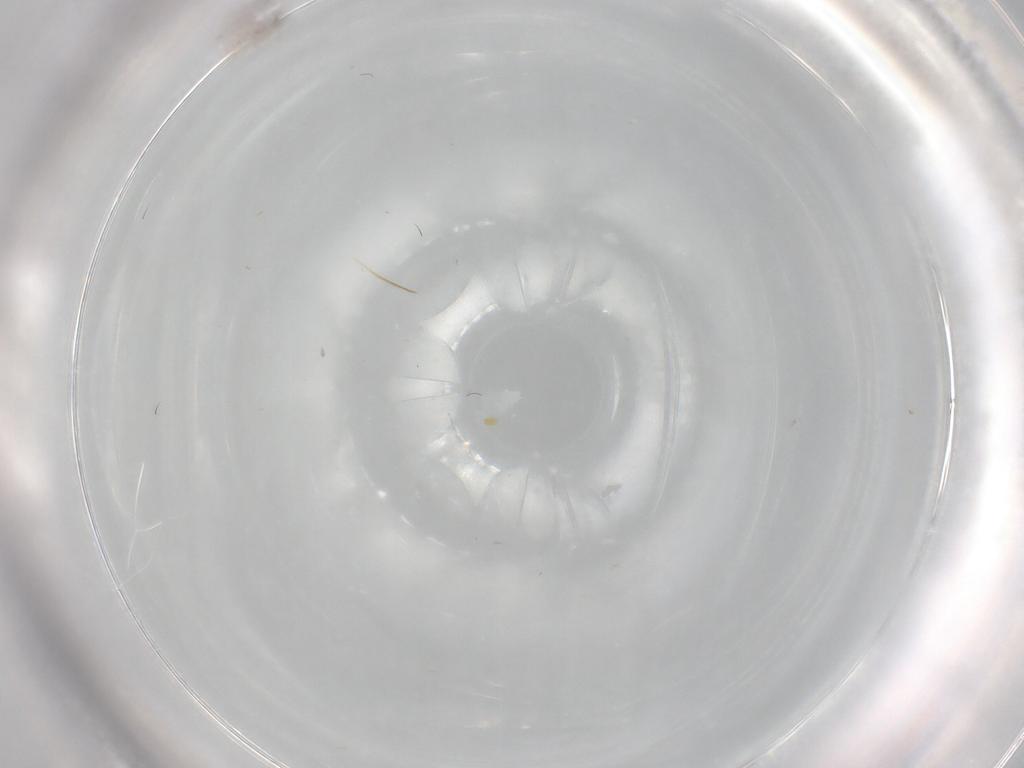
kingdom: Animalia
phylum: Arthropoda
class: Insecta
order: Diptera
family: Cecidomyiidae
